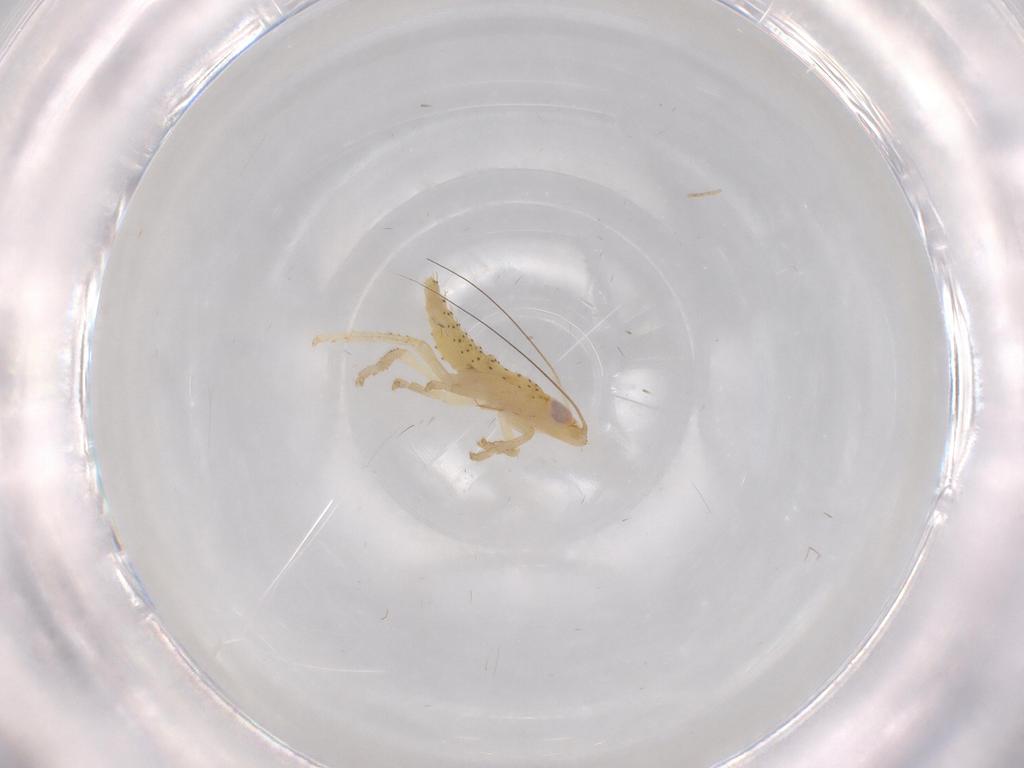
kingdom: Animalia
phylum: Arthropoda
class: Insecta
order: Hemiptera
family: Cicadellidae
